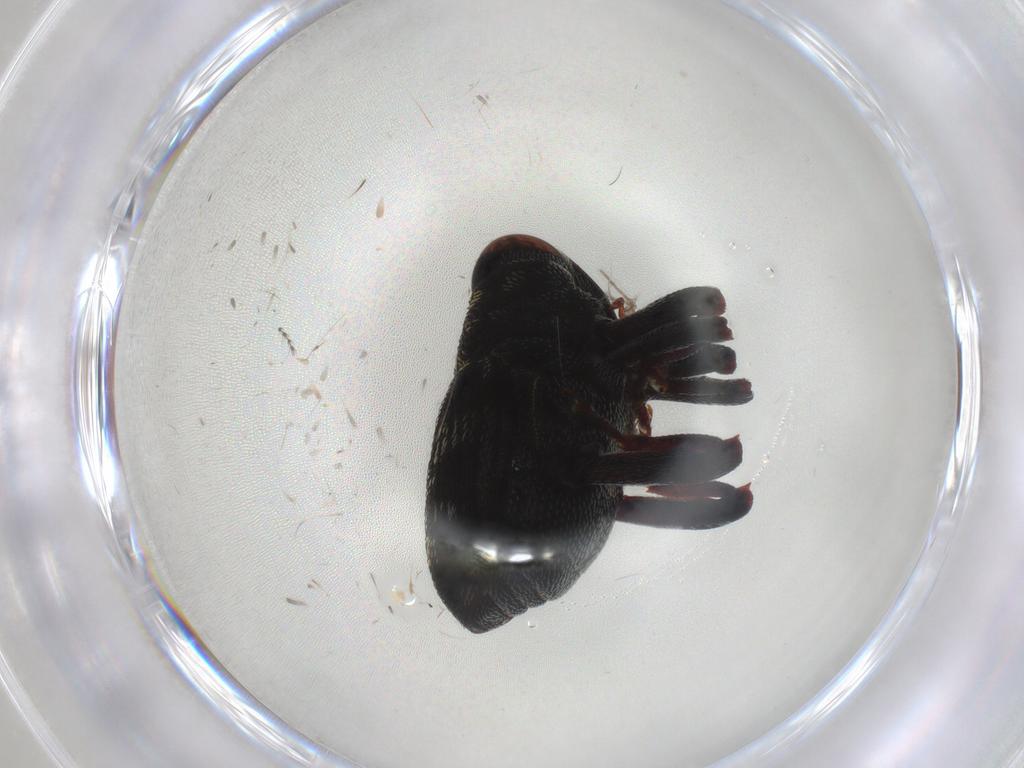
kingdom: Animalia
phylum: Arthropoda
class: Insecta
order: Coleoptera
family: Curculionidae
